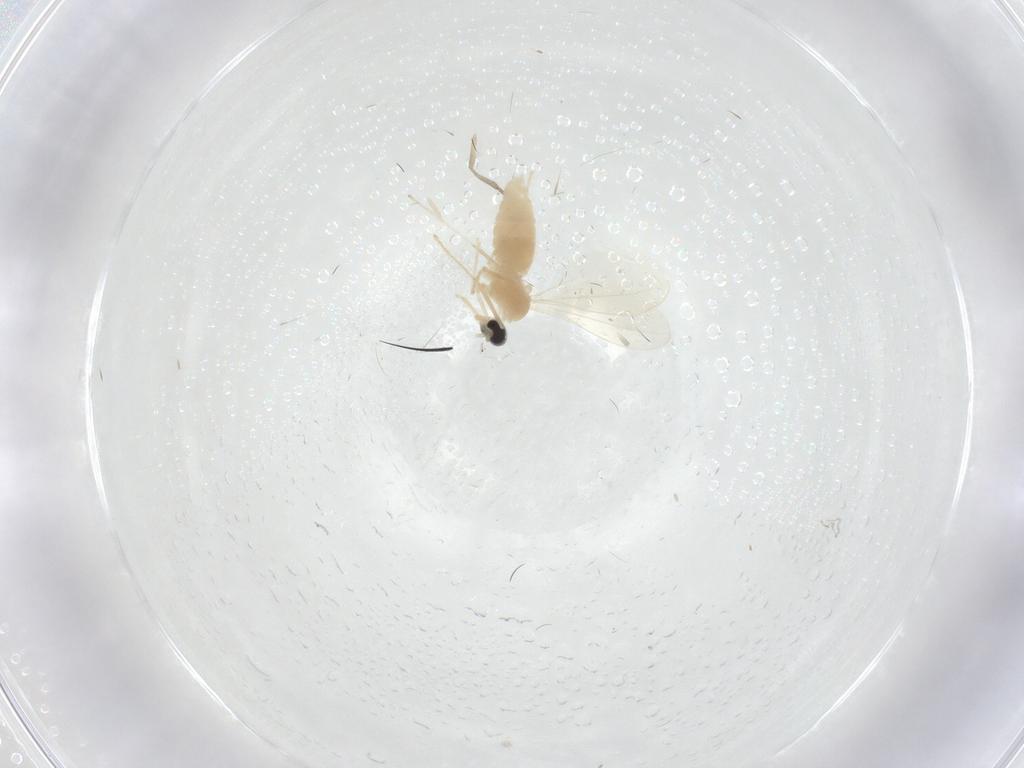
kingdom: Animalia
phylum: Arthropoda
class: Insecta
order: Diptera
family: Cecidomyiidae
